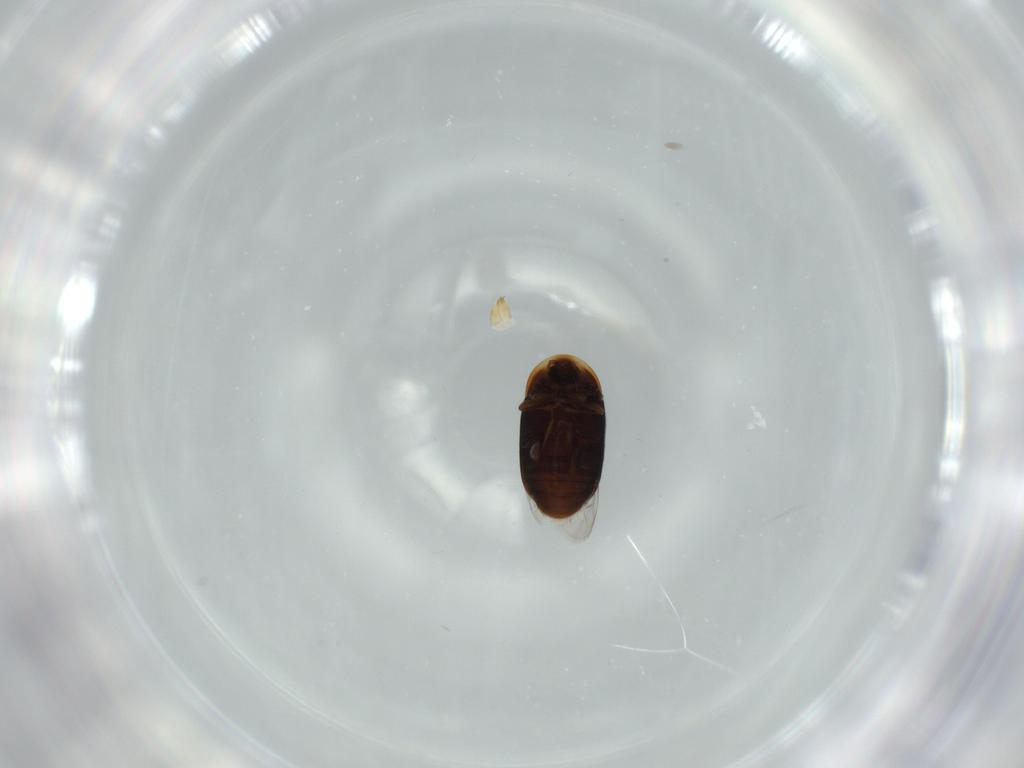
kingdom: Animalia
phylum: Arthropoda
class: Insecta
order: Coleoptera
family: Corylophidae
